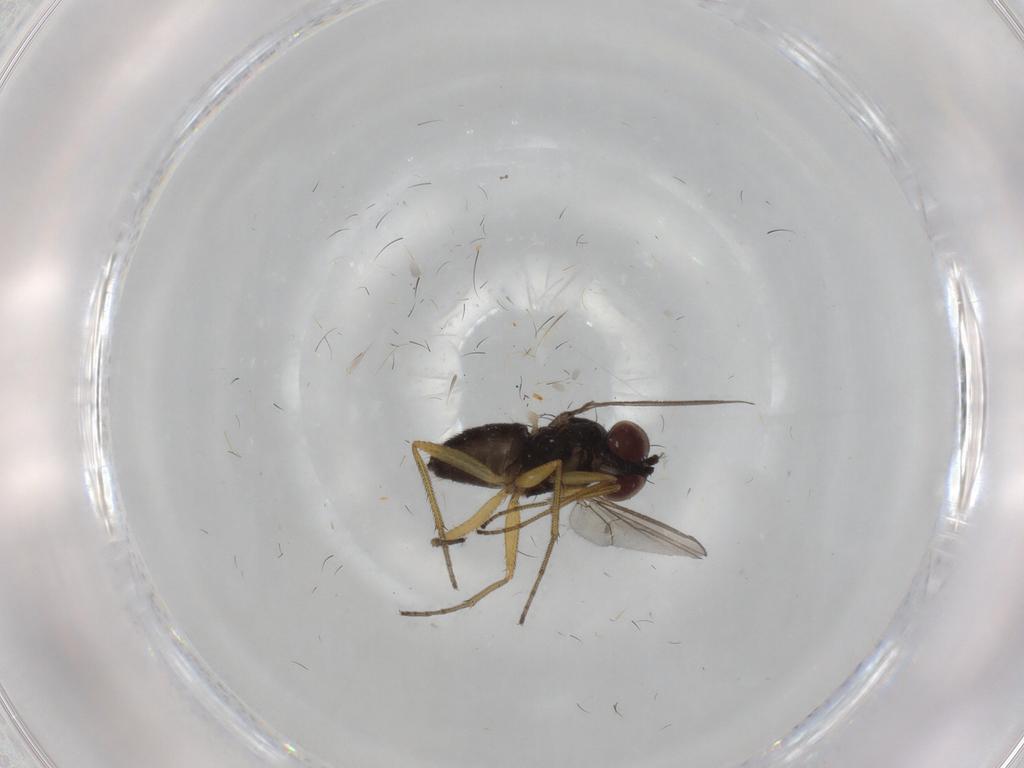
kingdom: Animalia
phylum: Arthropoda
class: Insecta
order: Diptera
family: Dolichopodidae
